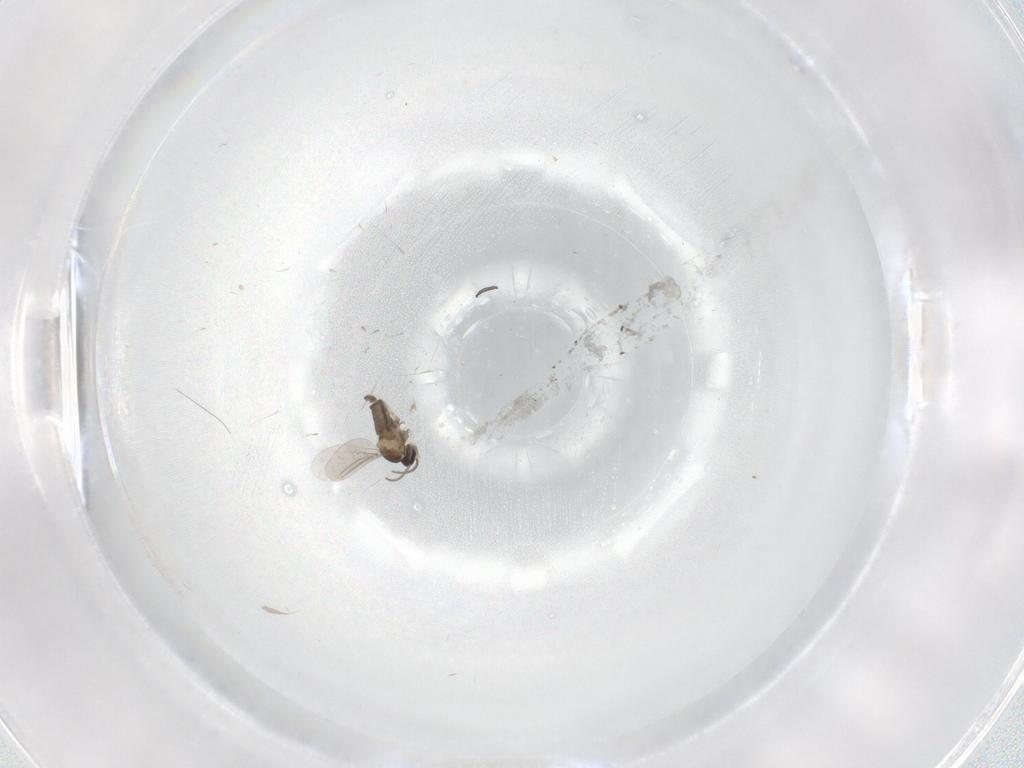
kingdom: Animalia
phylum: Arthropoda
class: Insecta
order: Diptera
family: Cecidomyiidae
